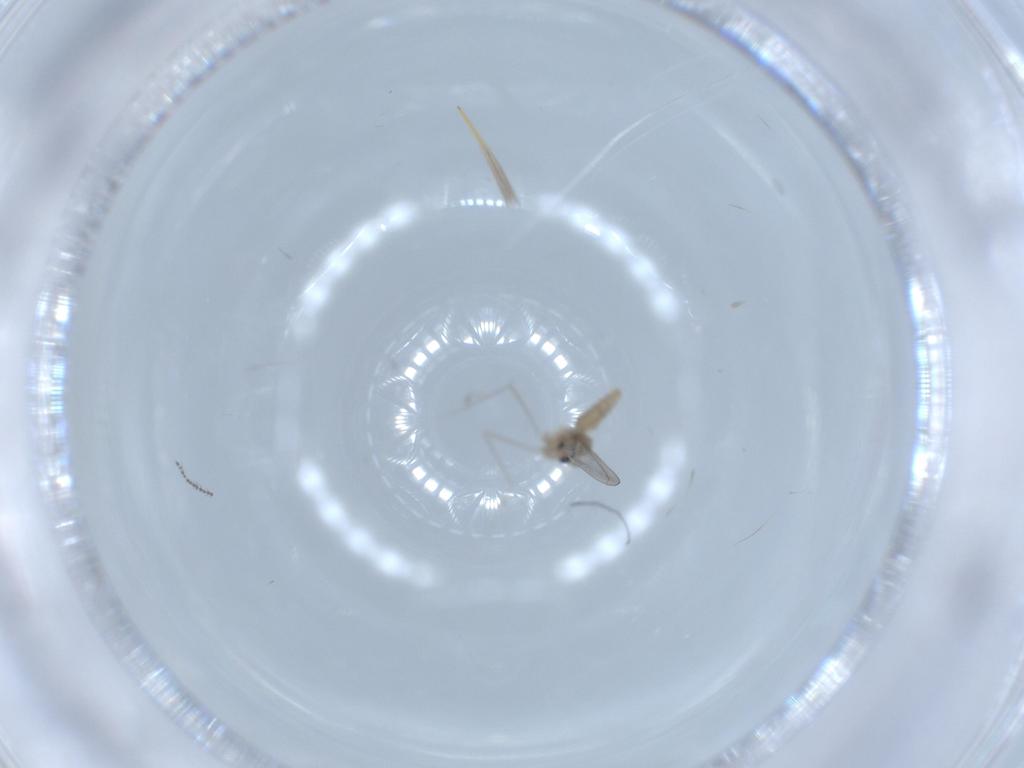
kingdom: Animalia
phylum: Arthropoda
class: Insecta
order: Diptera
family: Cecidomyiidae
